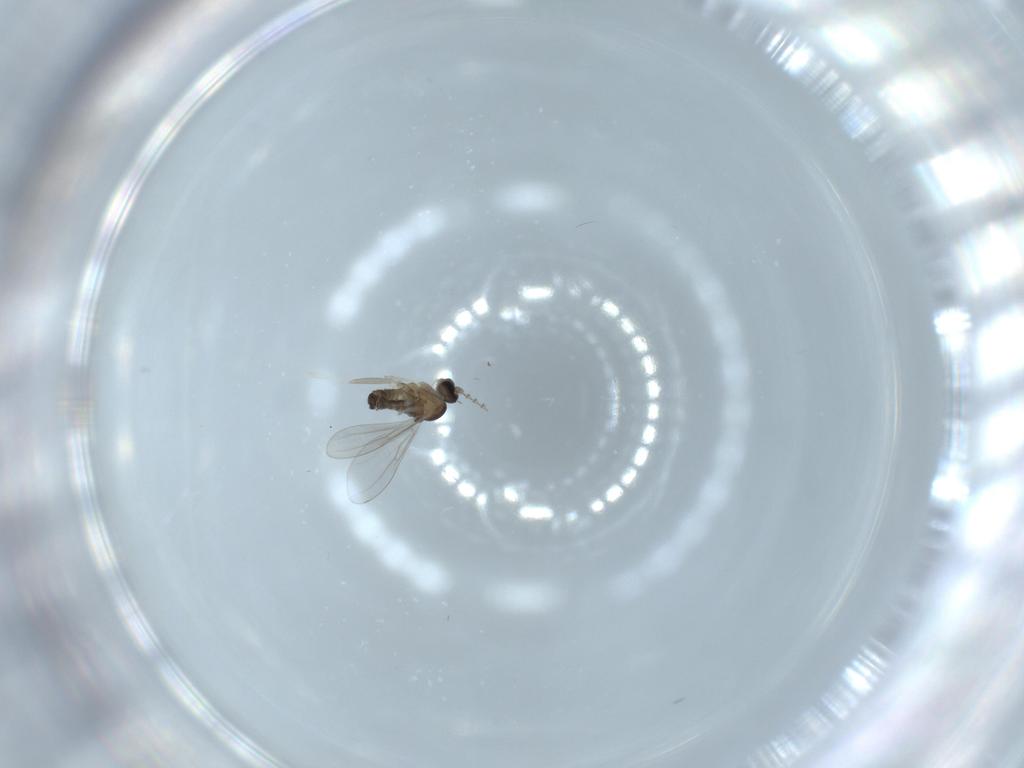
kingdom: Animalia
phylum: Arthropoda
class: Insecta
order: Diptera
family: Cecidomyiidae
